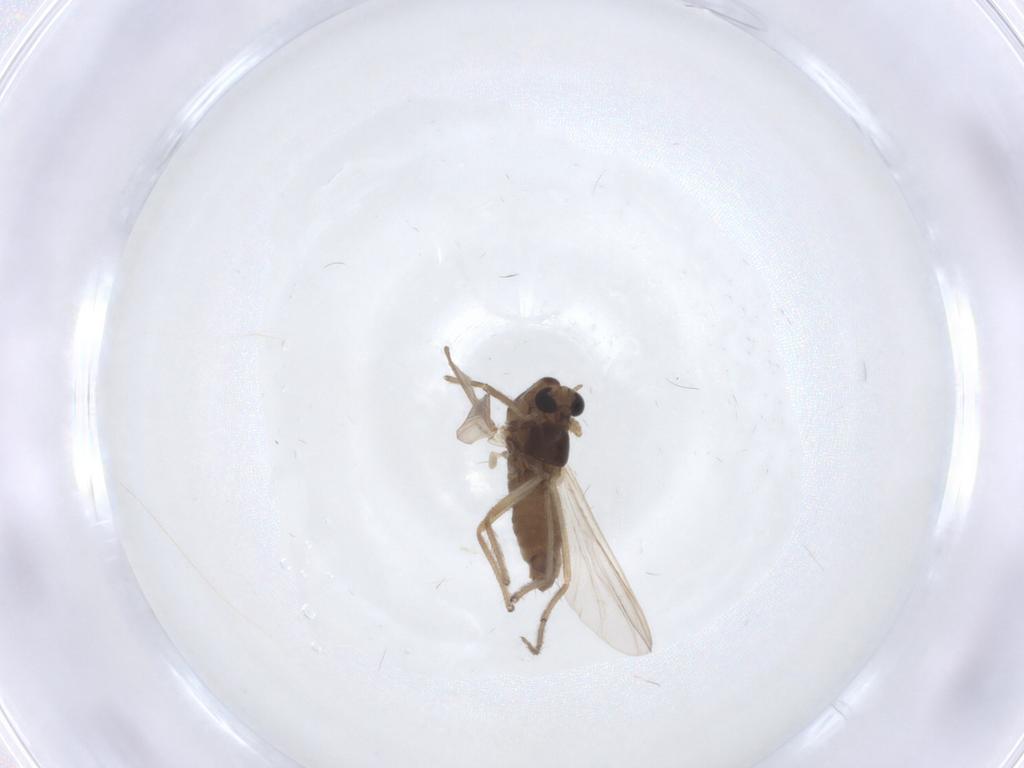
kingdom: Animalia
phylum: Arthropoda
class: Insecta
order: Diptera
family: Chironomidae
